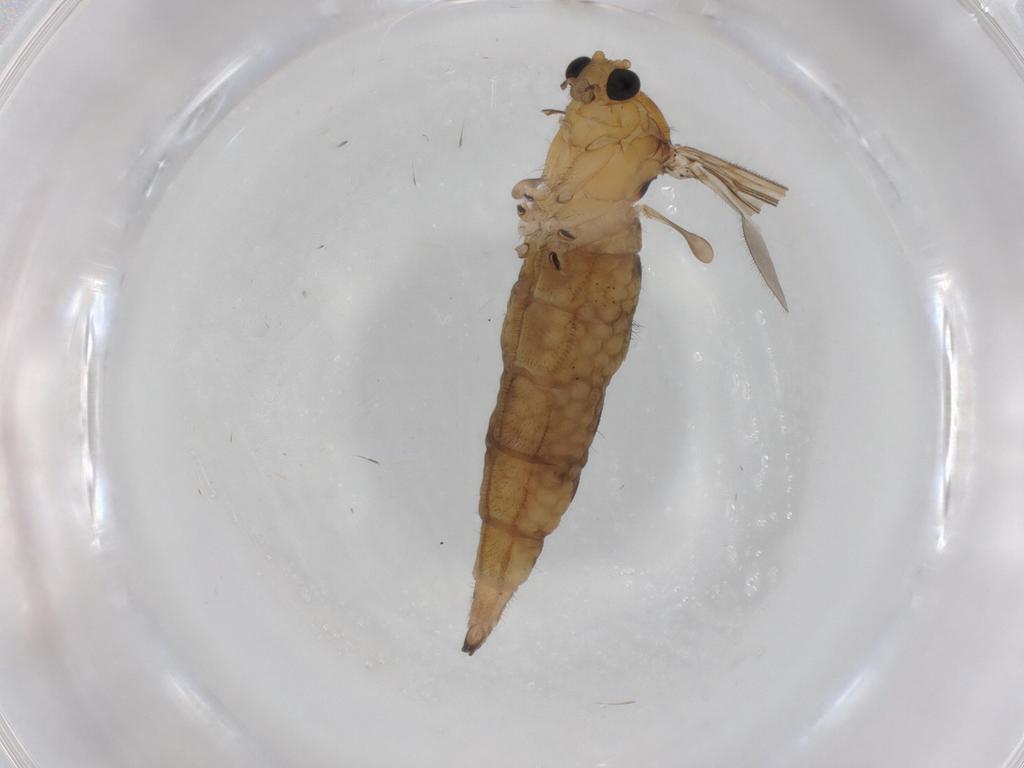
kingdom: Animalia
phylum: Arthropoda
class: Insecta
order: Diptera
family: Sciaridae
